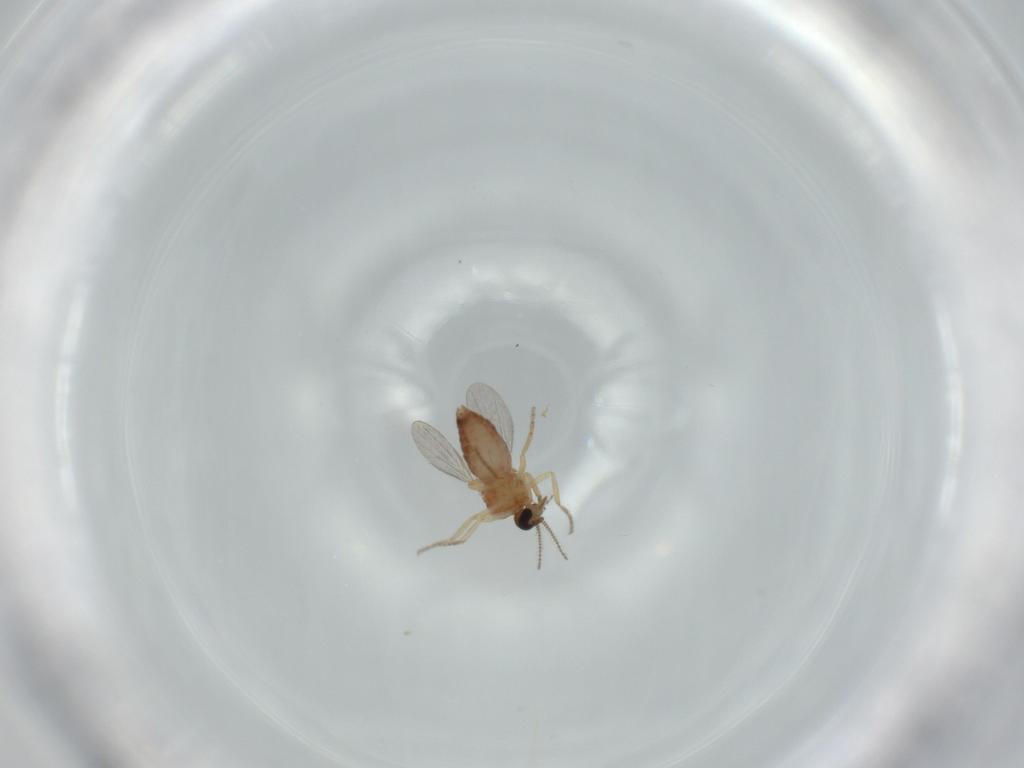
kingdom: Animalia
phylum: Arthropoda
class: Insecta
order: Diptera
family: Ceratopogonidae
